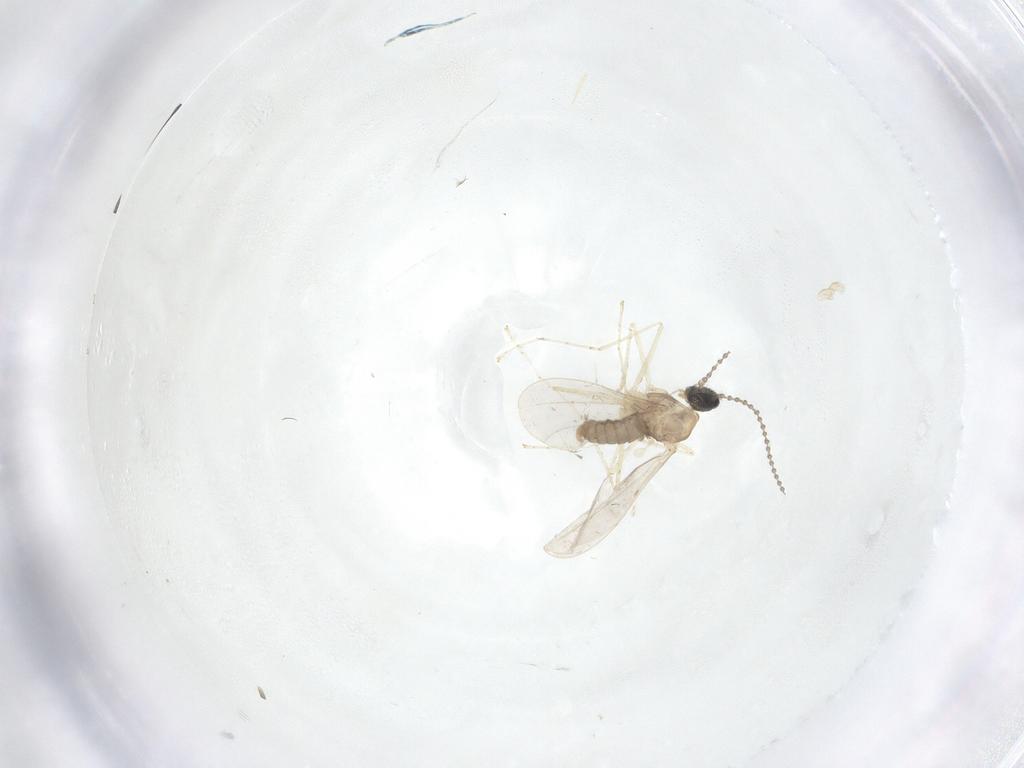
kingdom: Animalia
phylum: Arthropoda
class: Insecta
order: Diptera
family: Cecidomyiidae
